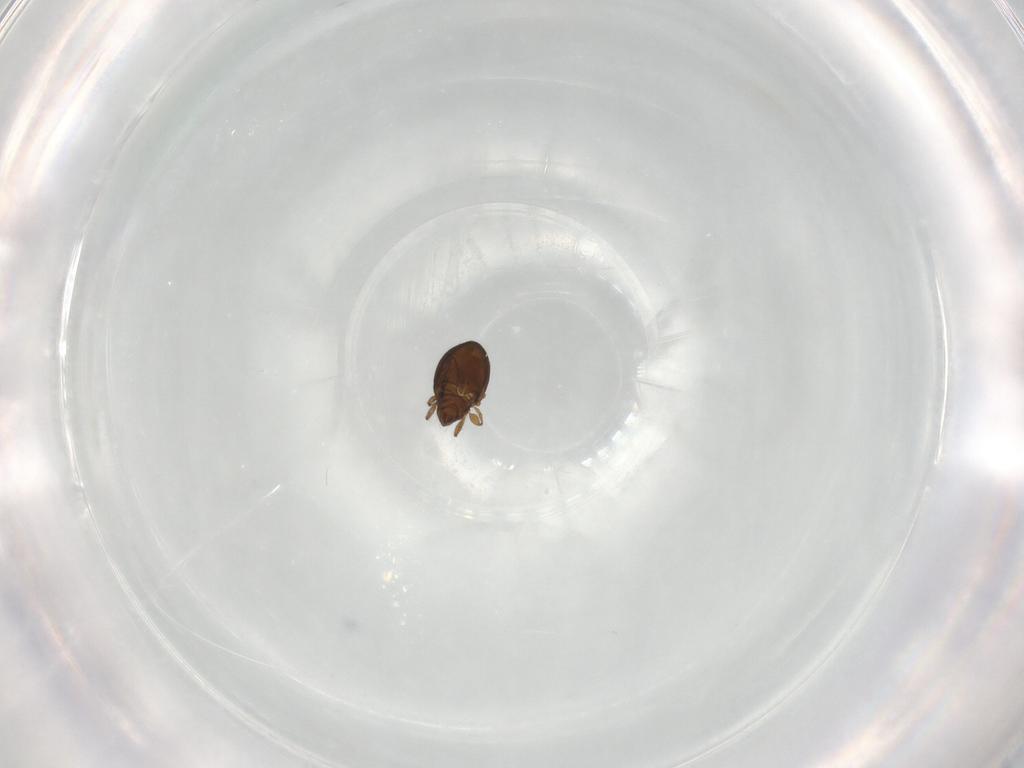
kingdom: Animalia
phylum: Arthropoda
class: Arachnida
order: Sarcoptiformes
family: Oribatulidae
